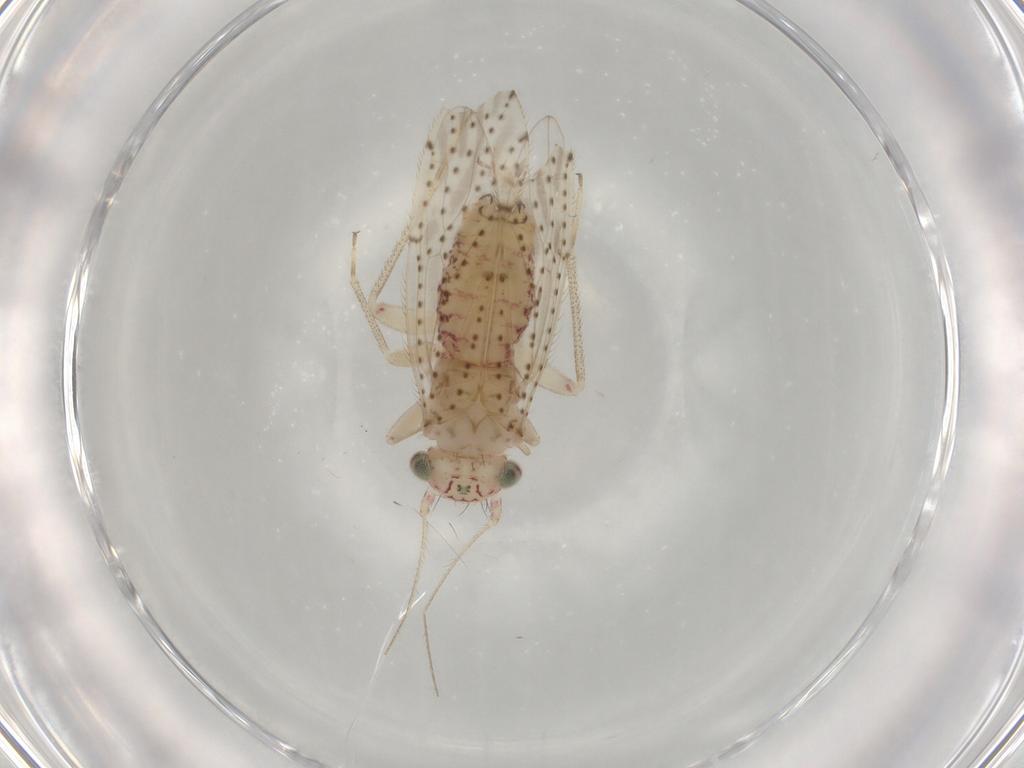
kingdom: Animalia
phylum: Arthropoda
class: Insecta
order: Psocodea
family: Philotarsidae
